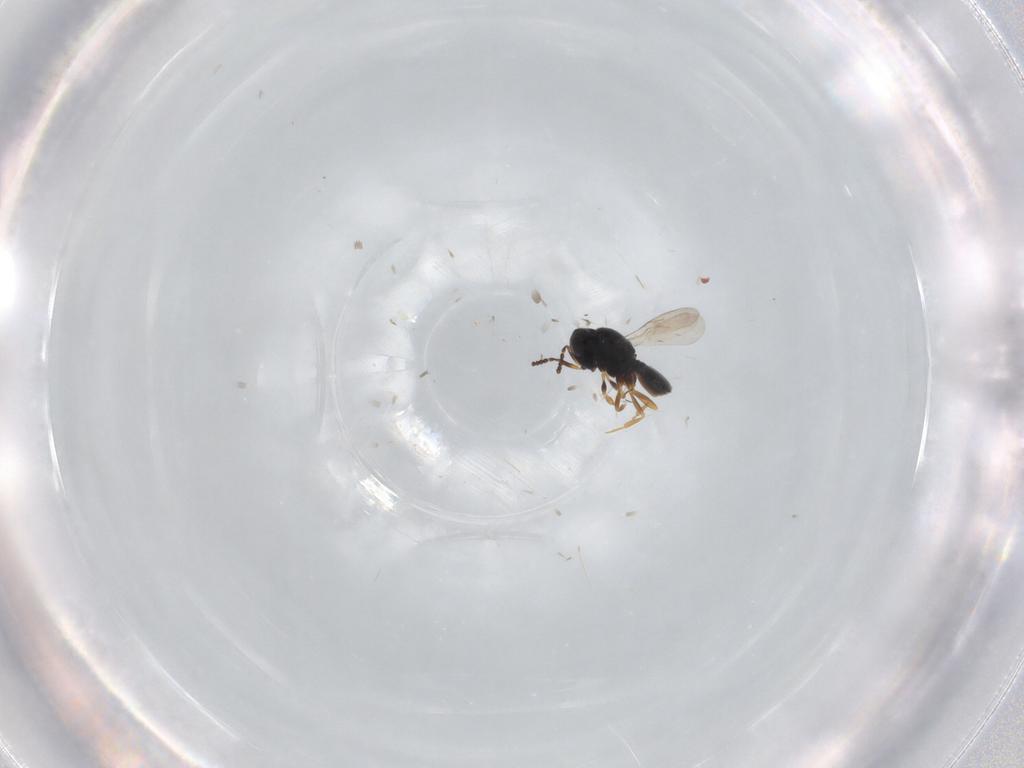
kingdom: Animalia
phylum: Arthropoda
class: Insecta
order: Hymenoptera
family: Scelionidae
